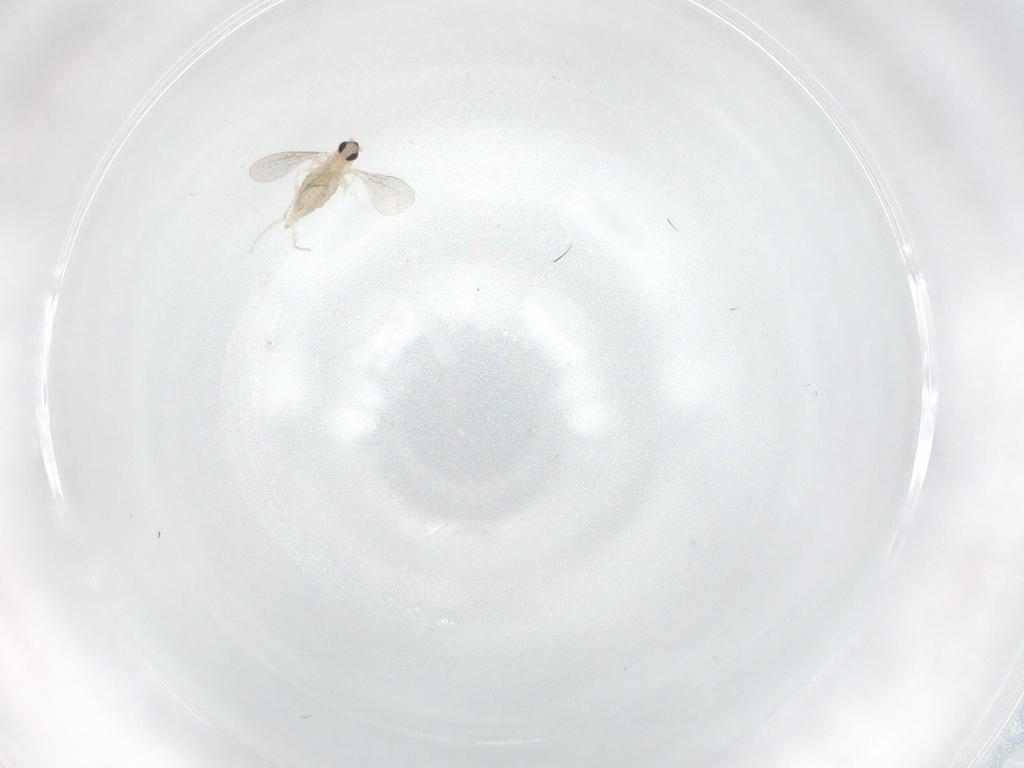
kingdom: Animalia
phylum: Arthropoda
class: Insecta
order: Diptera
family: Cecidomyiidae
